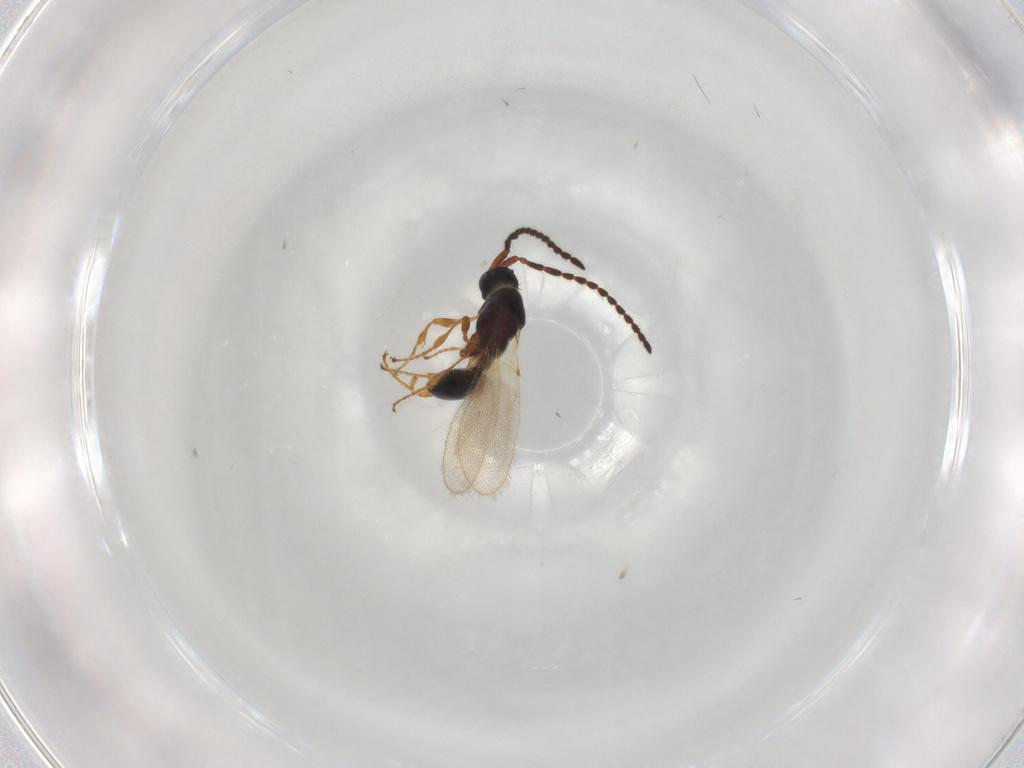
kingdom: Animalia
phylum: Arthropoda
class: Insecta
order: Hymenoptera
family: Diapriidae
